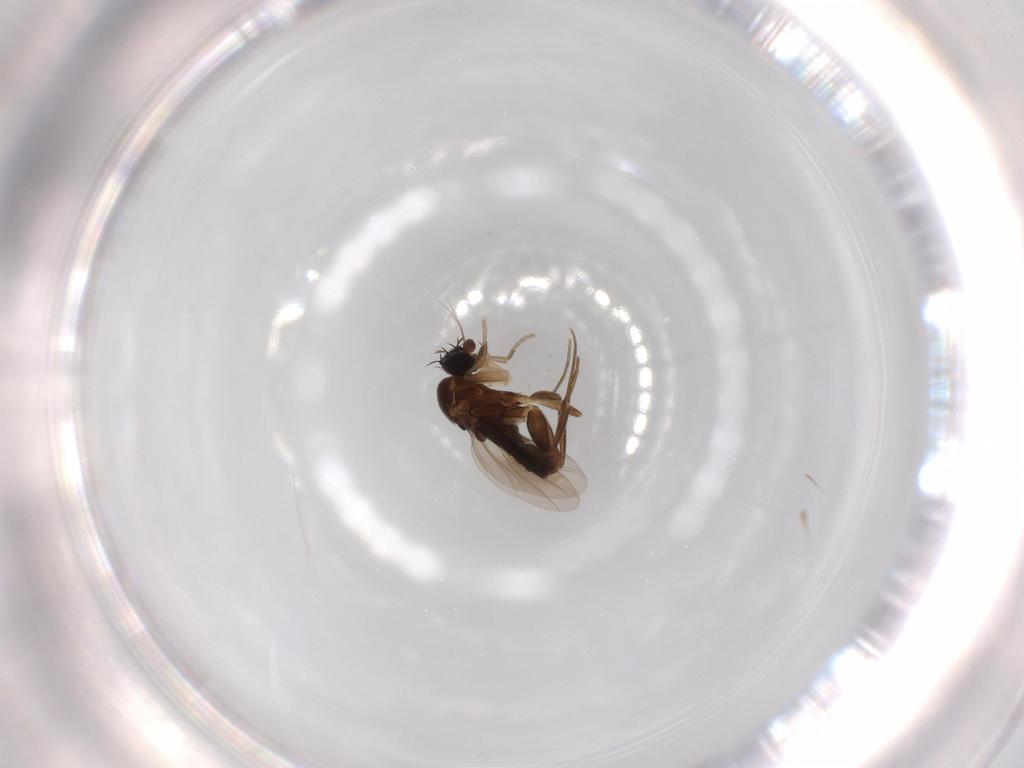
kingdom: Animalia
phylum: Arthropoda
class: Insecta
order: Diptera
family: Phoridae
